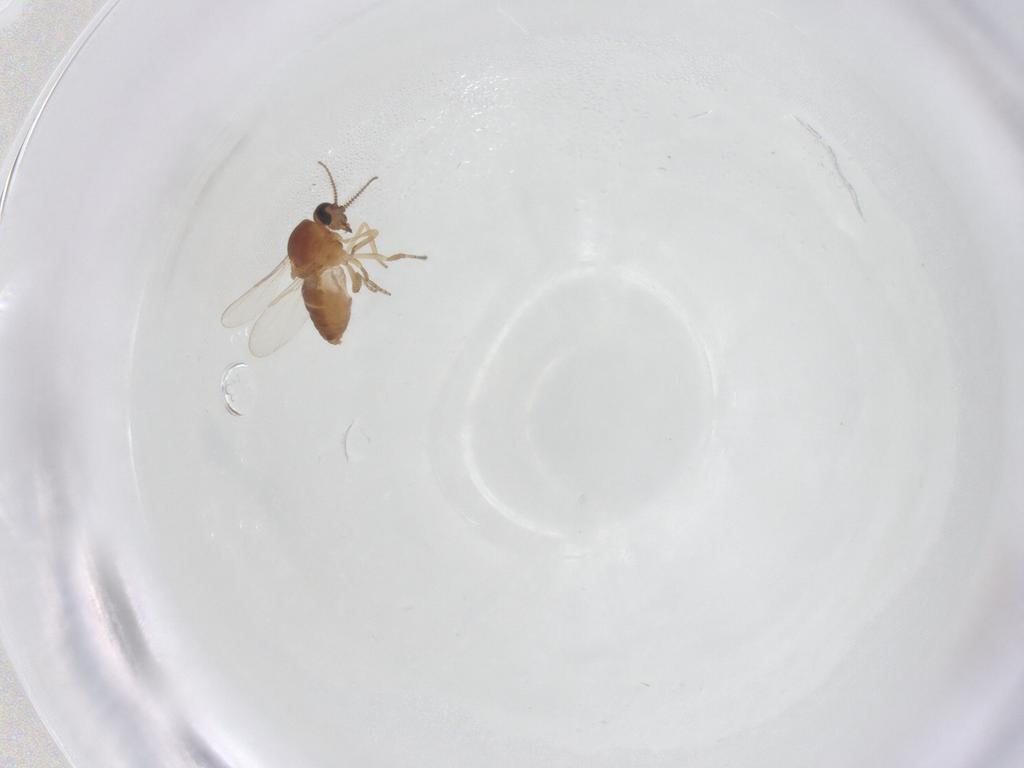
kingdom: Animalia
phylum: Arthropoda
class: Insecta
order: Diptera
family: Ceratopogonidae
